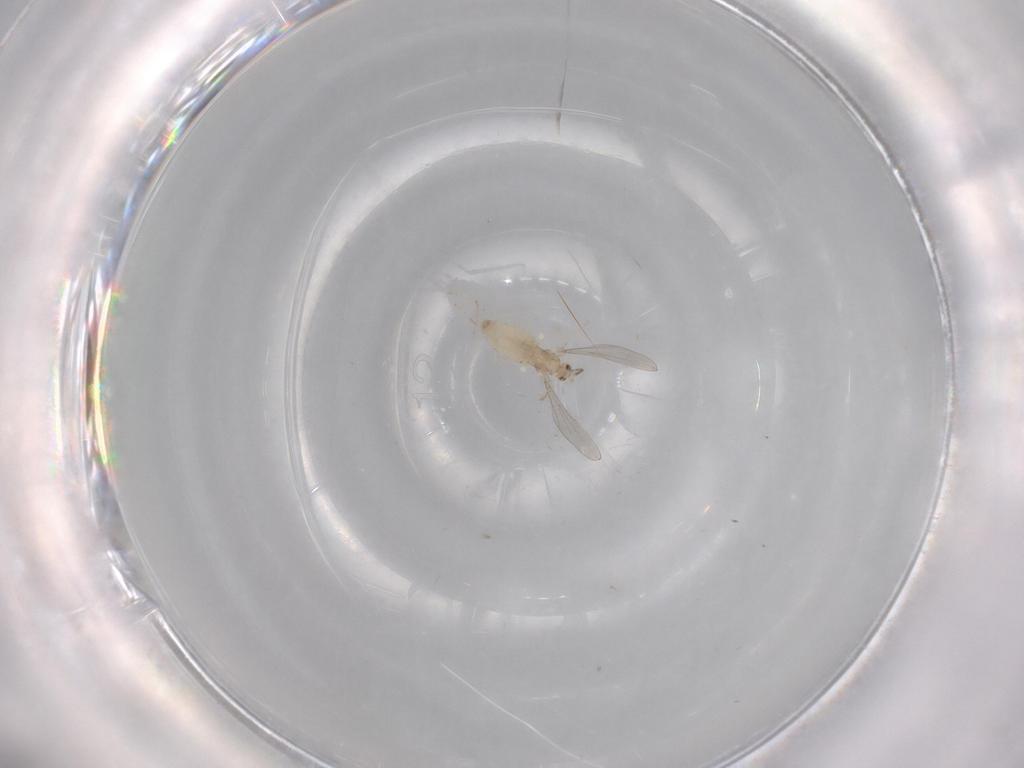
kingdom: Animalia
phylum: Arthropoda
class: Insecta
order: Diptera
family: Cecidomyiidae
